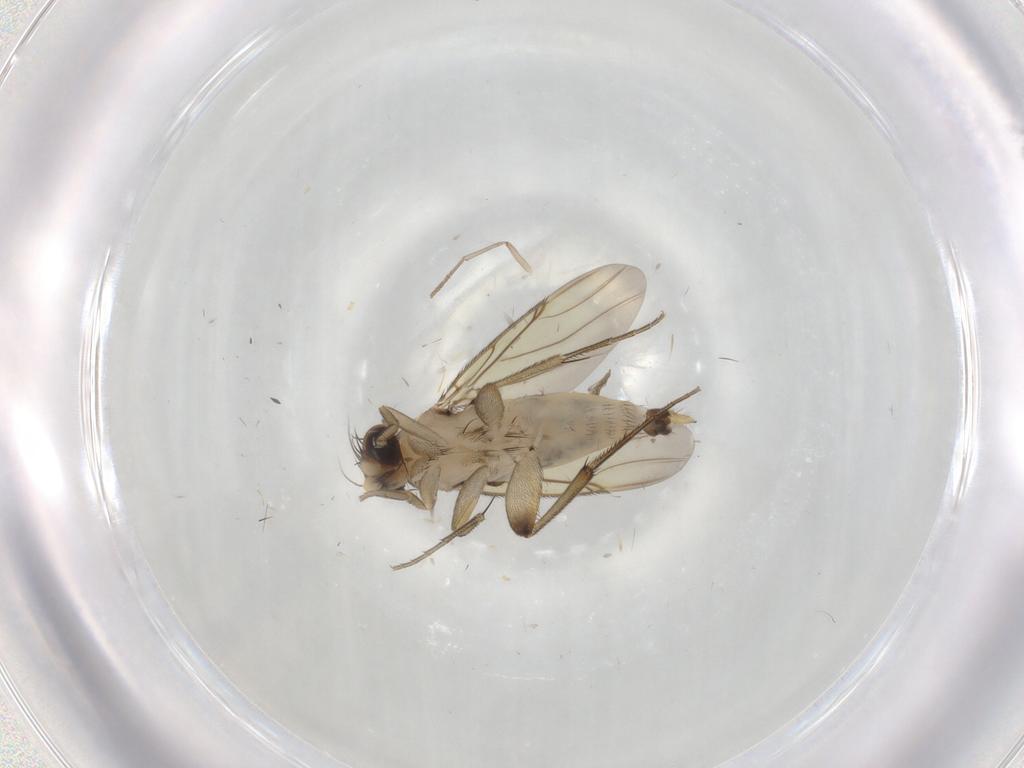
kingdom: Animalia
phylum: Arthropoda
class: Insecta
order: Diptera
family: Phoridae
